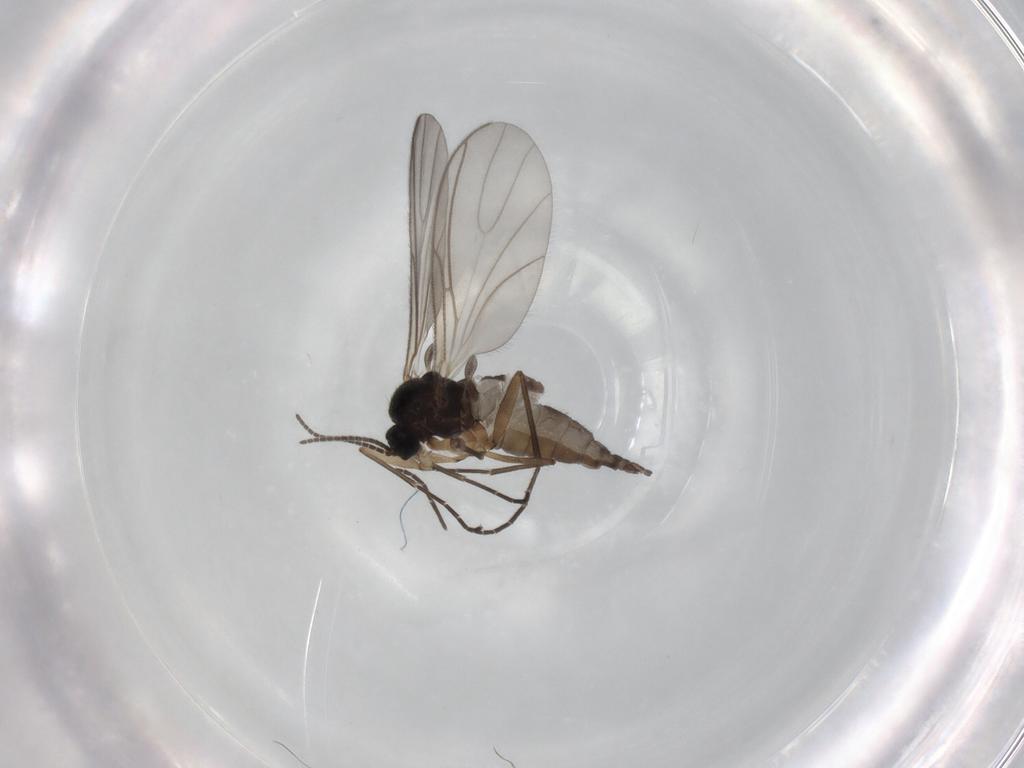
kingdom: Animalia
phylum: Arthropoda
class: Insecta
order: Diptera
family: Sciaridae
